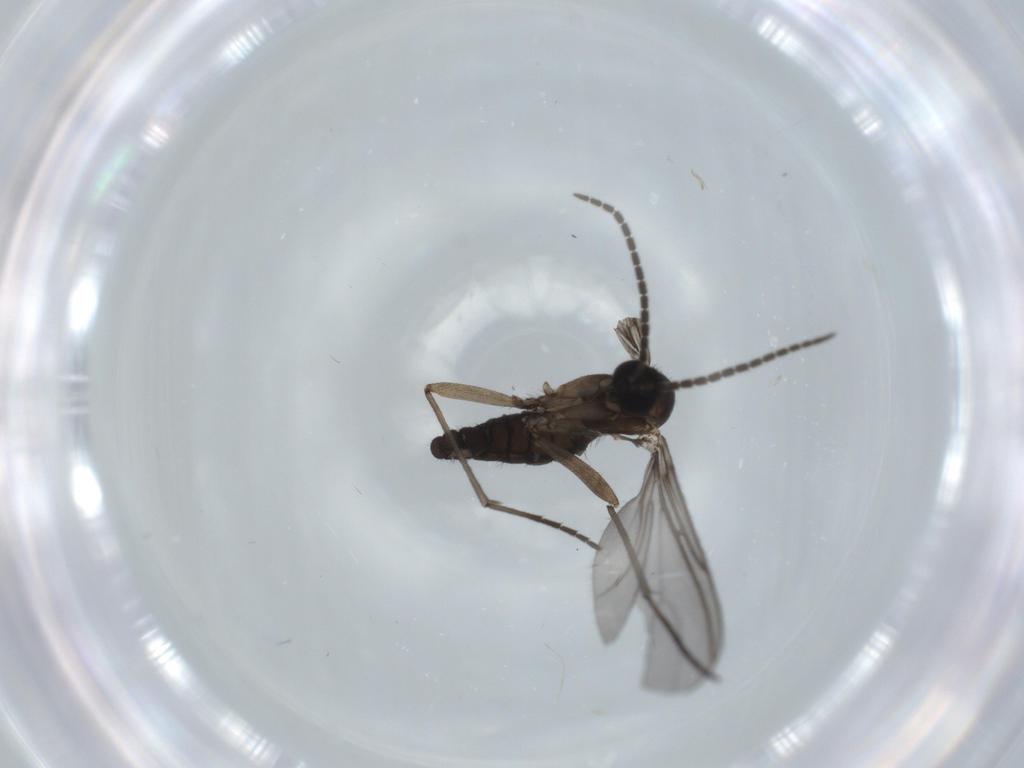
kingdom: Animalia
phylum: Arthropoda
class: Insecta
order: Diptera
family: Sciaridae
